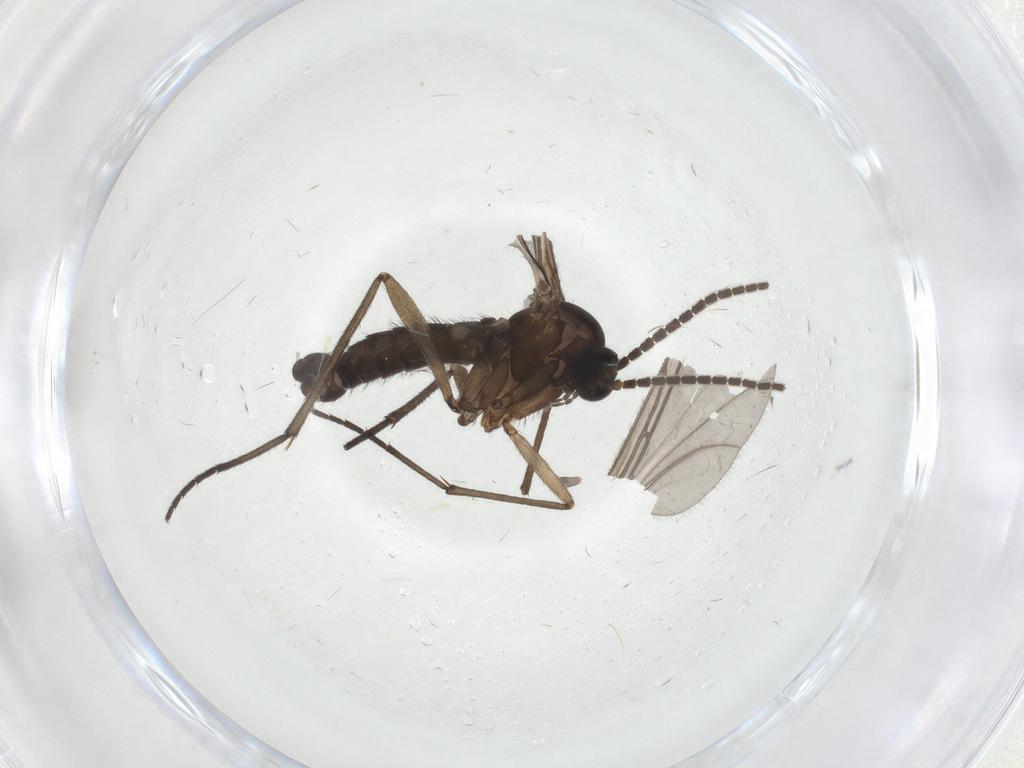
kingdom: Animalia
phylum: Arthropoda
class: Insecta
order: Diptera
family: Sciaridae
